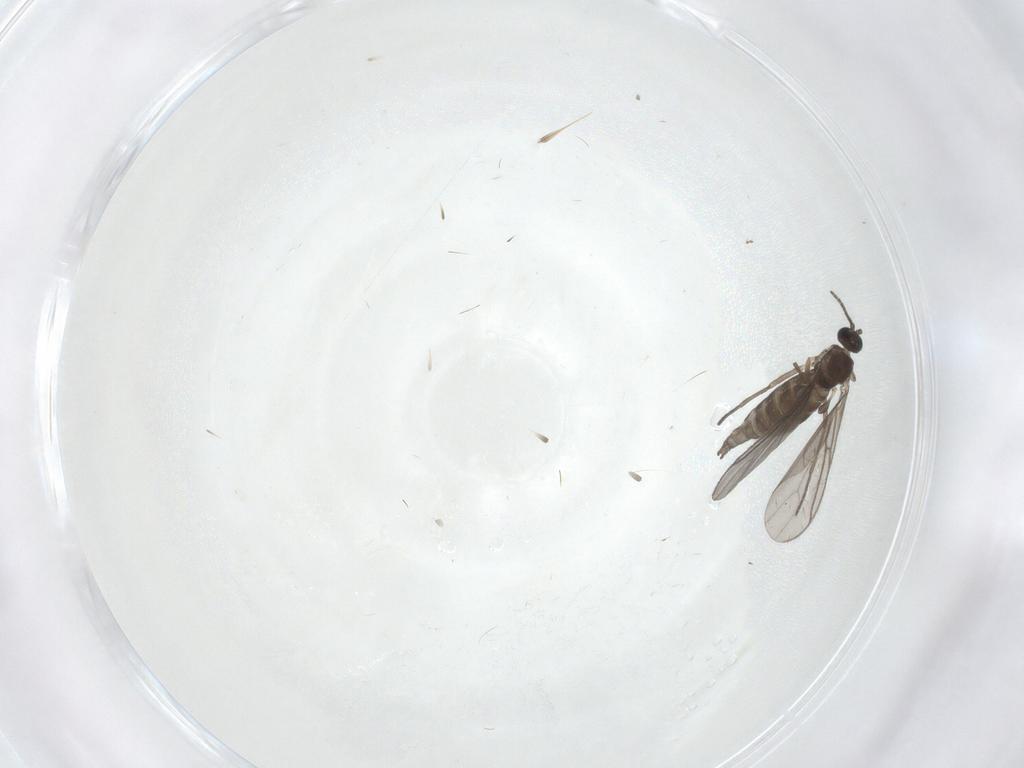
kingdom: Animalia
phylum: Arthropoda
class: Insecta
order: Diptera
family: Sciaridae
